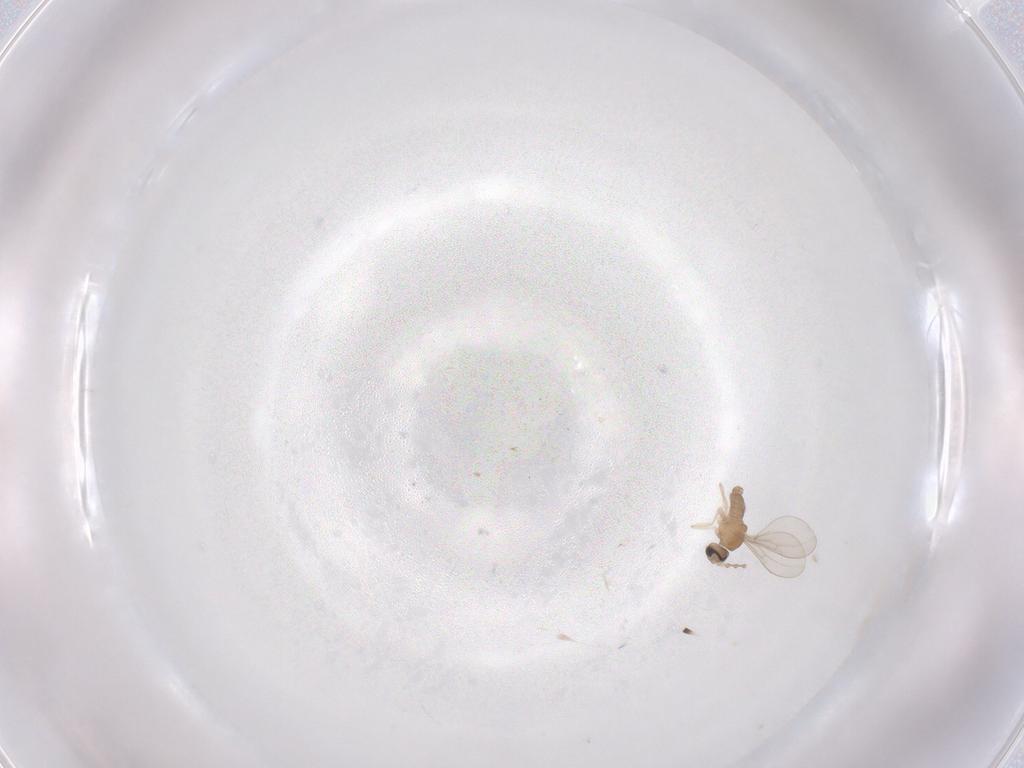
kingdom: Animalia
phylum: Arthropoda
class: Insecta
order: Diptera
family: Cecidomyiidae
